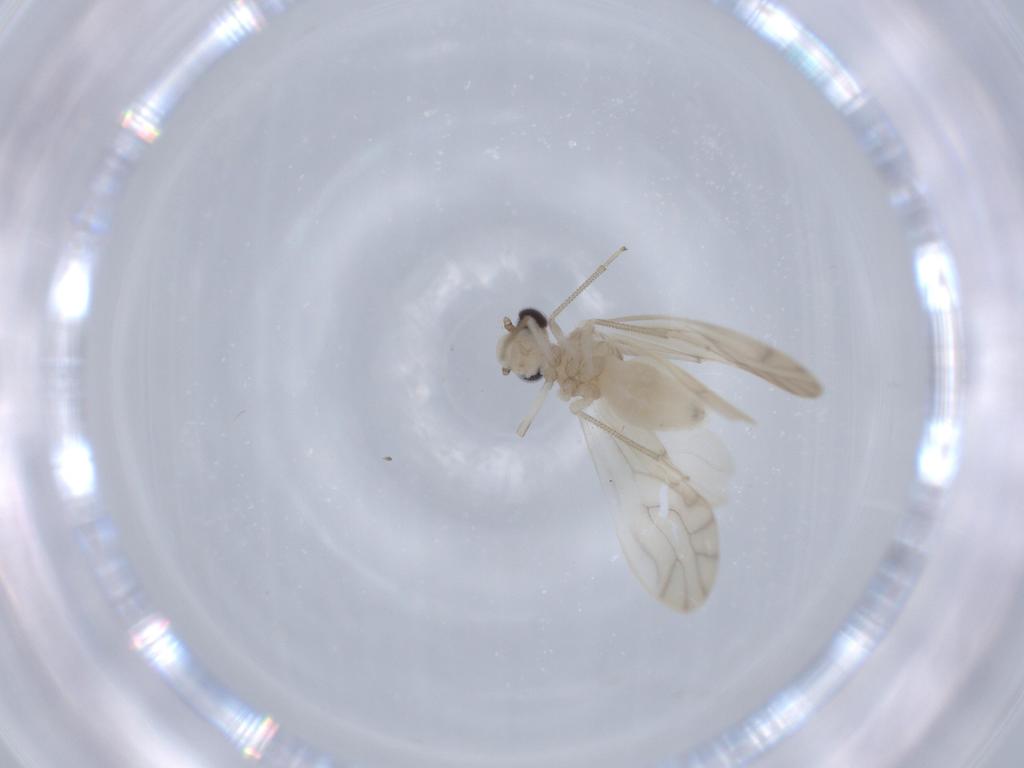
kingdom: Animalia
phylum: Arthropoda
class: Insecta
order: Psocodea
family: Caeciliusidae
